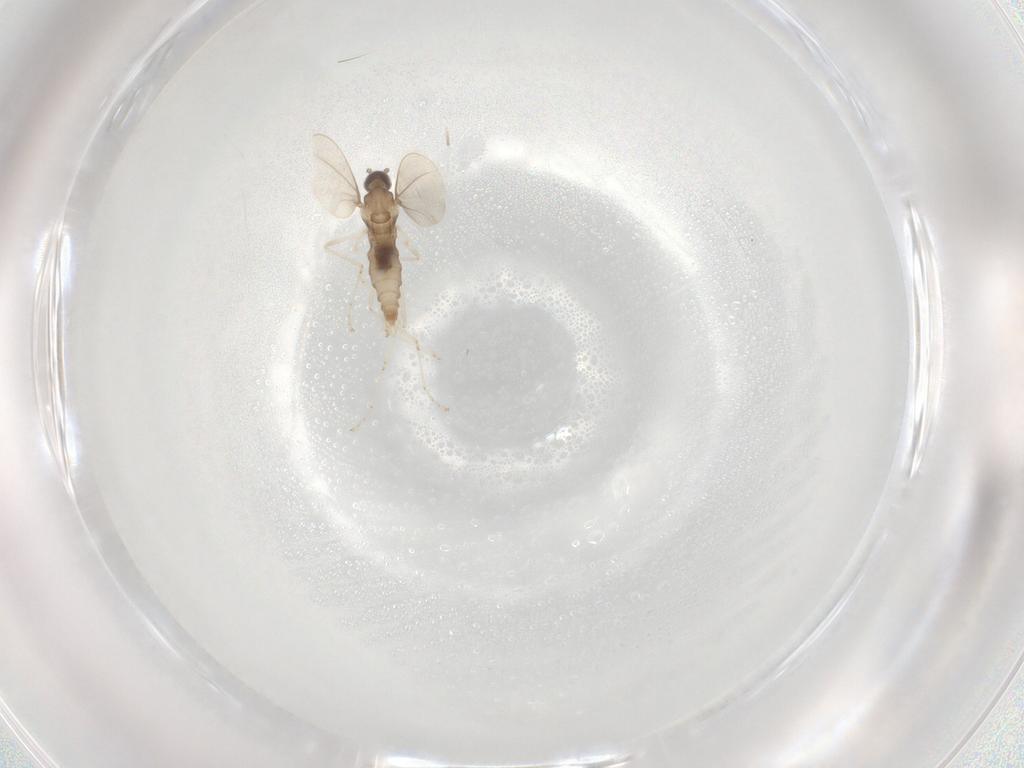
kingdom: Animalia
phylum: Arthropoda
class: Insecta
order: Diptera
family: Cecidomyiidae
